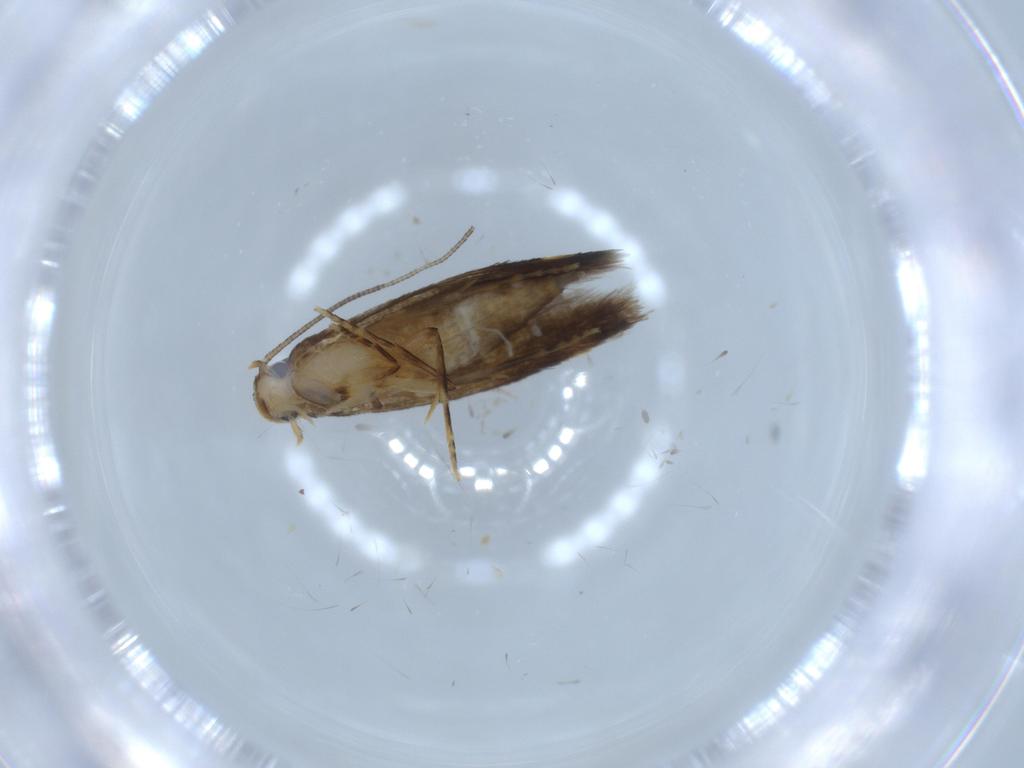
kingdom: Animalia
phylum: Arthropoda
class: Insecta
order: Lepidoptera
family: Tineidae
